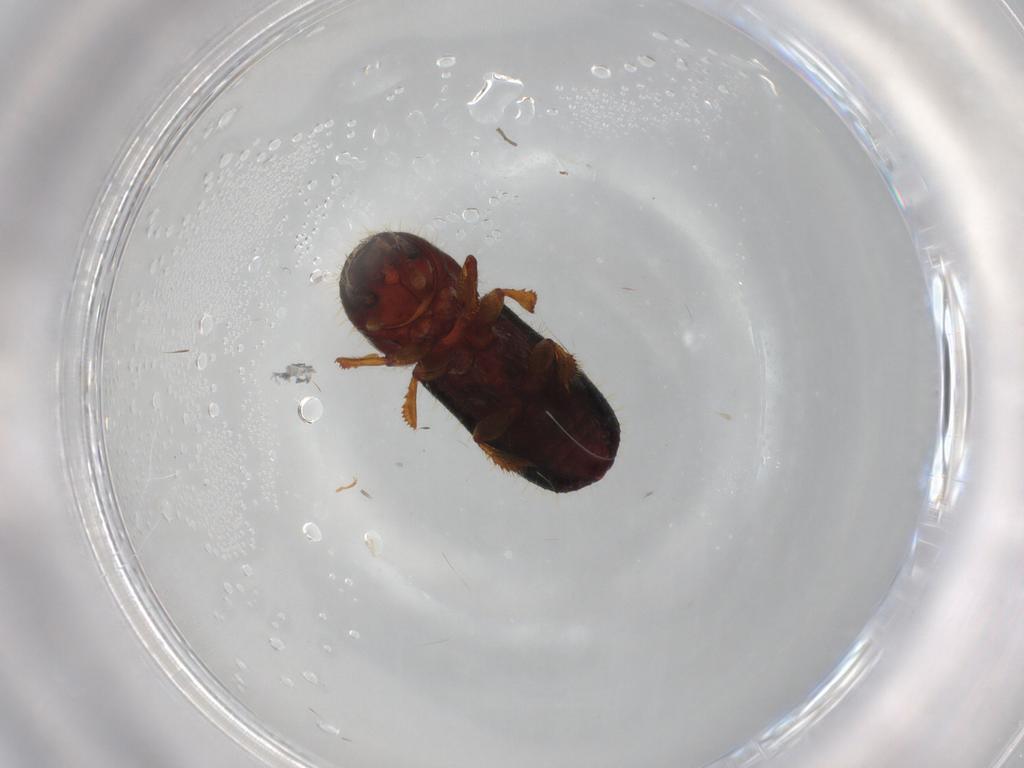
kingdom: Animalia
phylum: Arthropoda
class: Insecta
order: Coleoptera
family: Curculionidae
